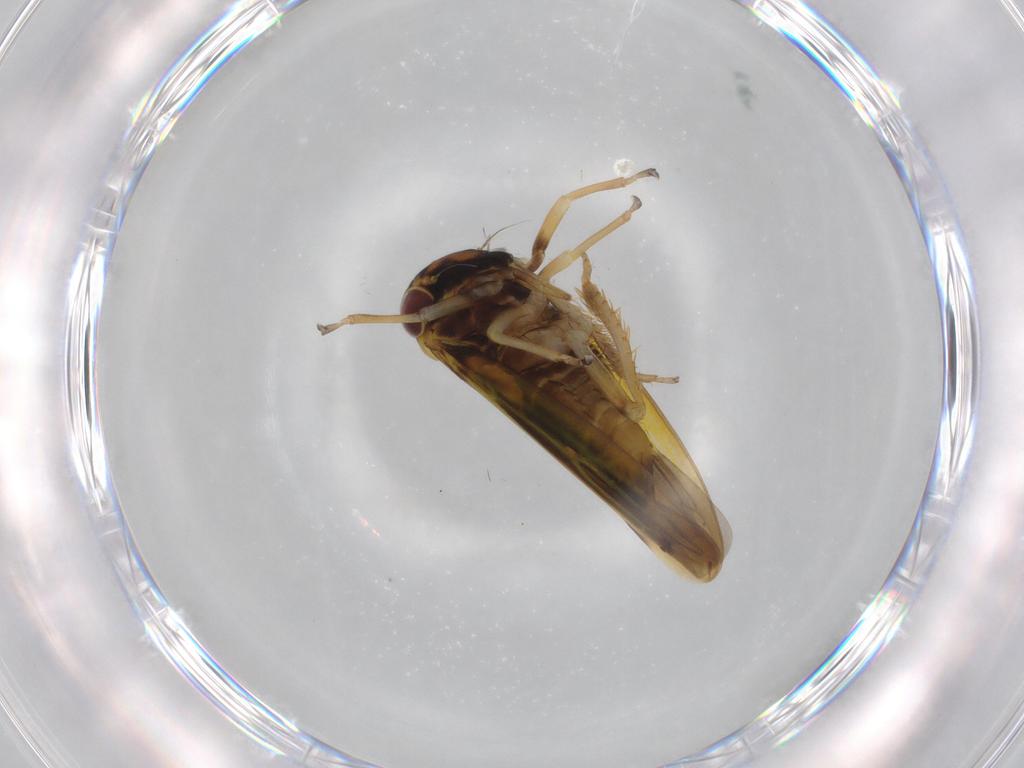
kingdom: Animalia
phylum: Arthropoda
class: Insecta
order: Hemiptera
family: Cicadellidae
